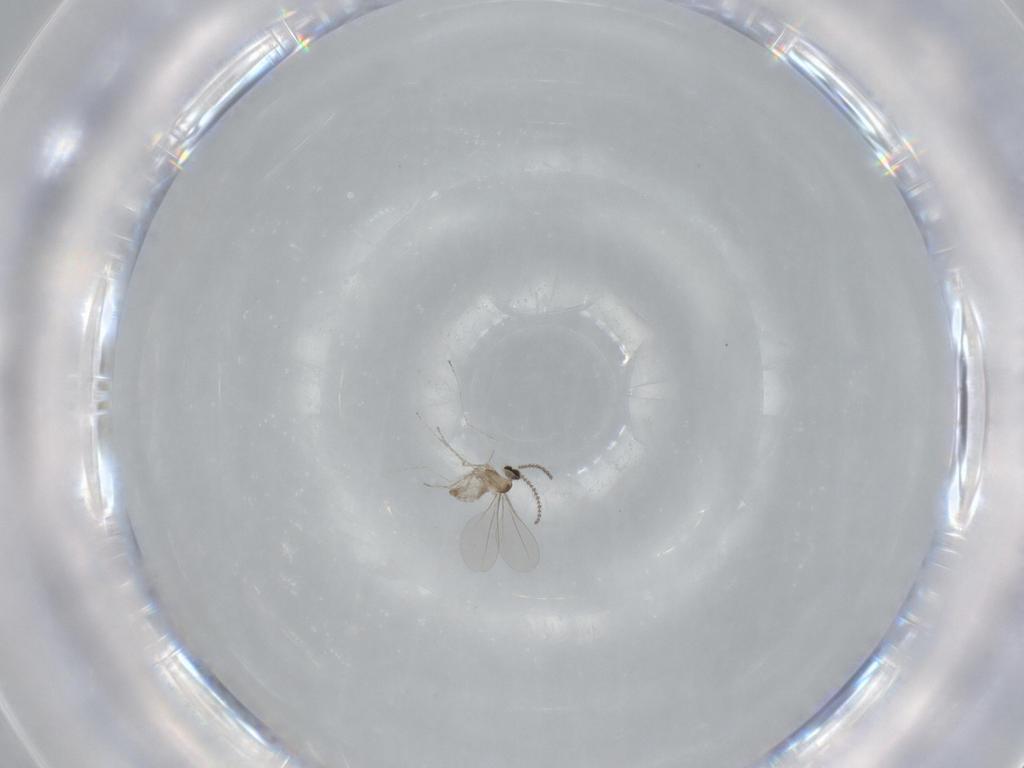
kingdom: Animalia
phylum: Arthropoda
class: Insecta
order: Diptera
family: Cecidomyiidae
